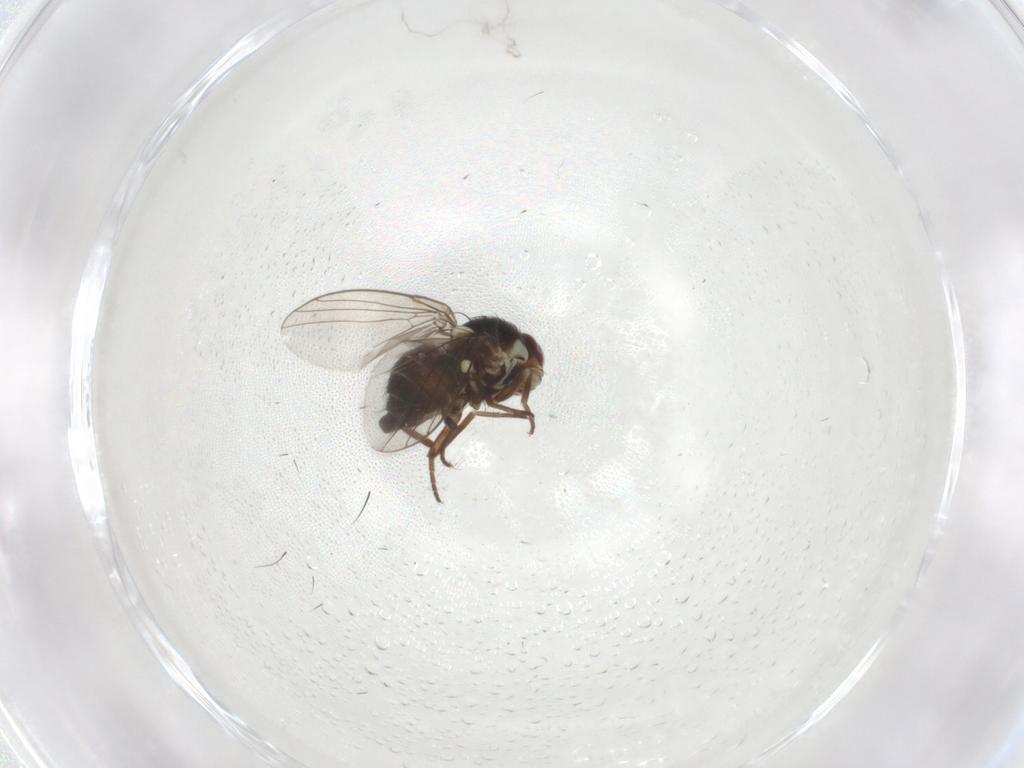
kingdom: Animalia
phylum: Arthropoda
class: Insecta
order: Diptera
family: Agromyzidae
